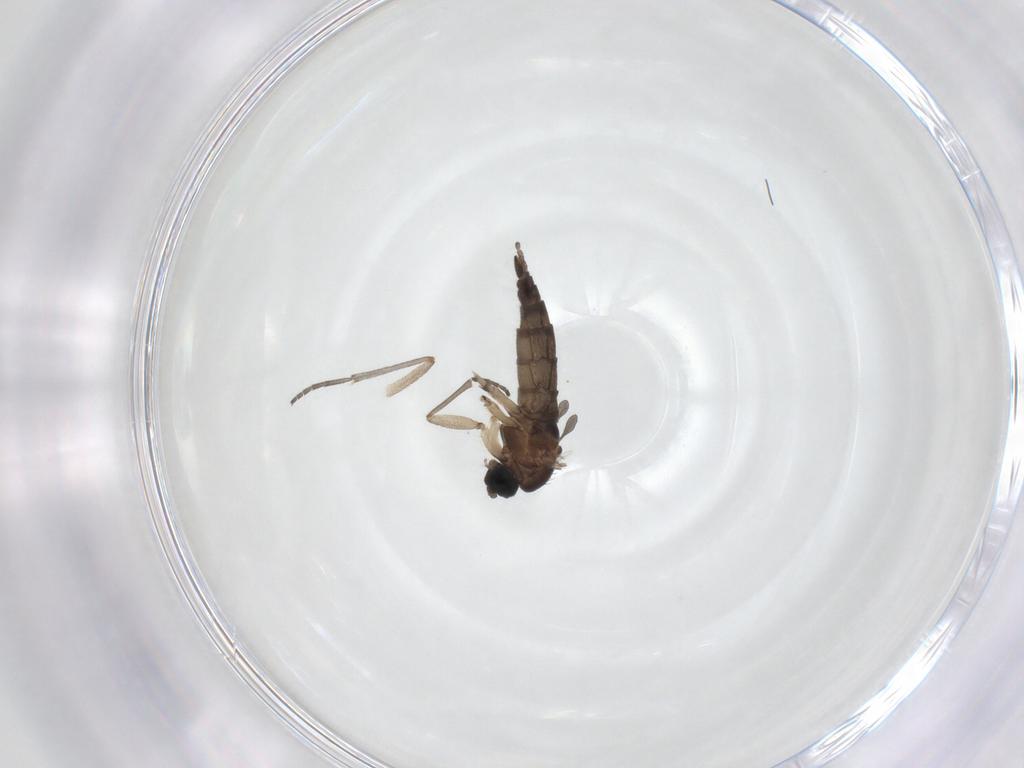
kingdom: Animalia
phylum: Arthropoda
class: Insecta
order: Diptera
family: Sciaridae
